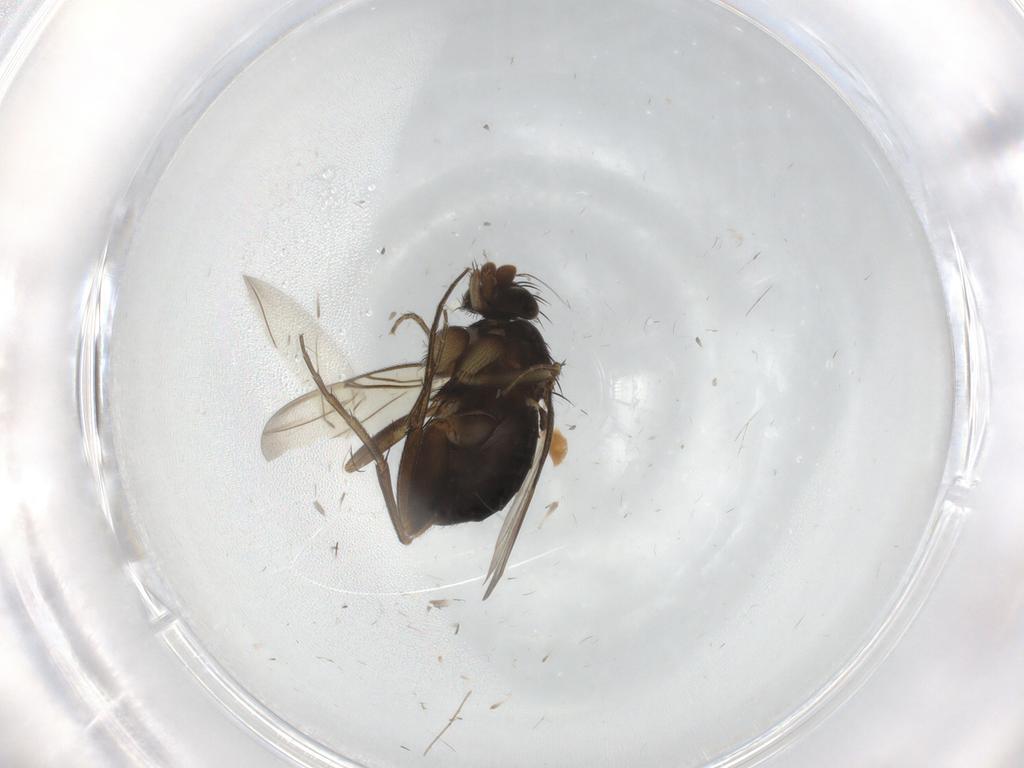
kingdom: Animalia
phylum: Arthropoda
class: Insecta
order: Diptera
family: Phoridae
